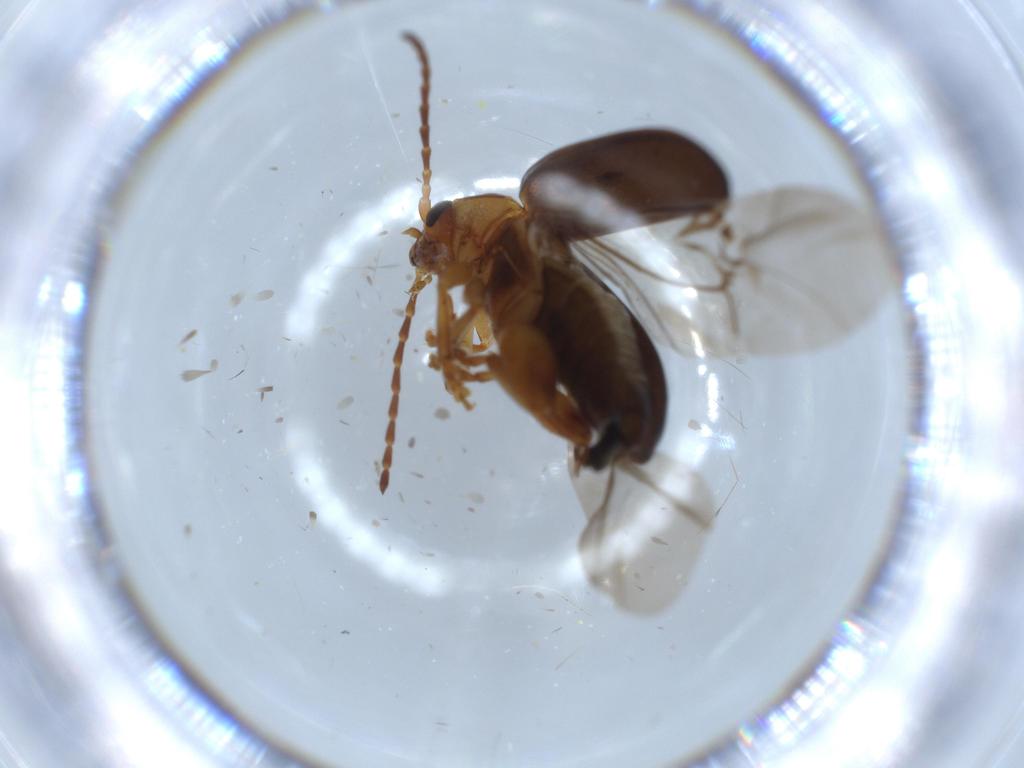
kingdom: Animalia
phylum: Arthropoda
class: Insecta
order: Coleoptera
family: Chrysomelidae
